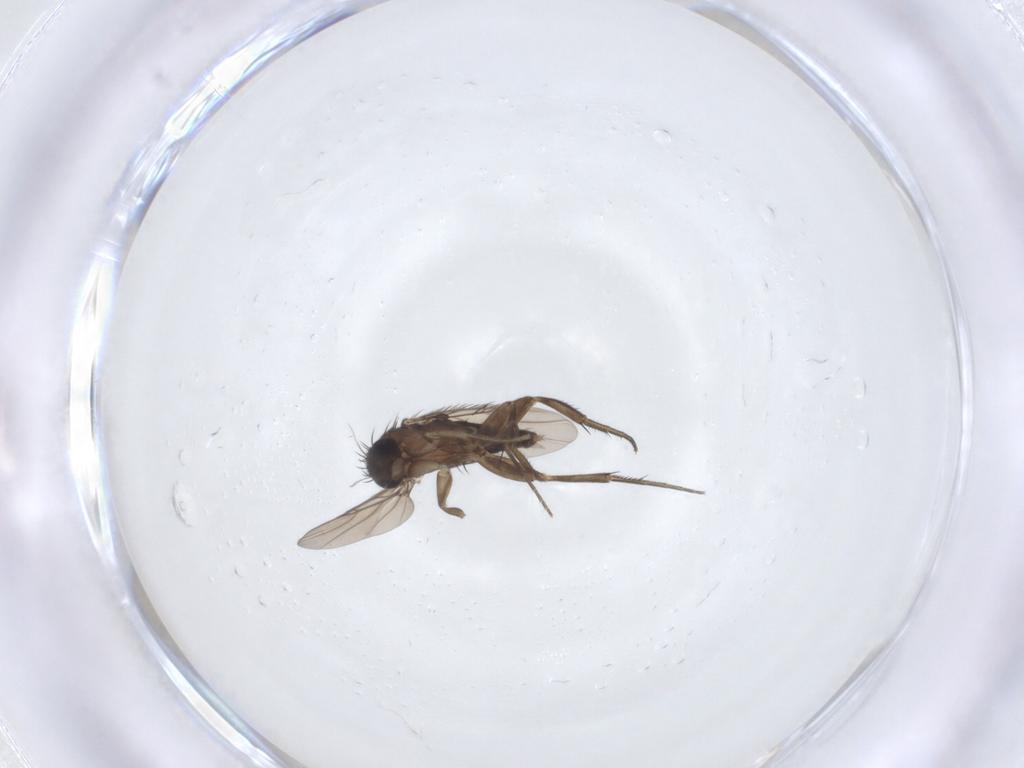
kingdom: Animalia
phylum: Arthropoda
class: Insecta
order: Diptera
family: Phoridae
